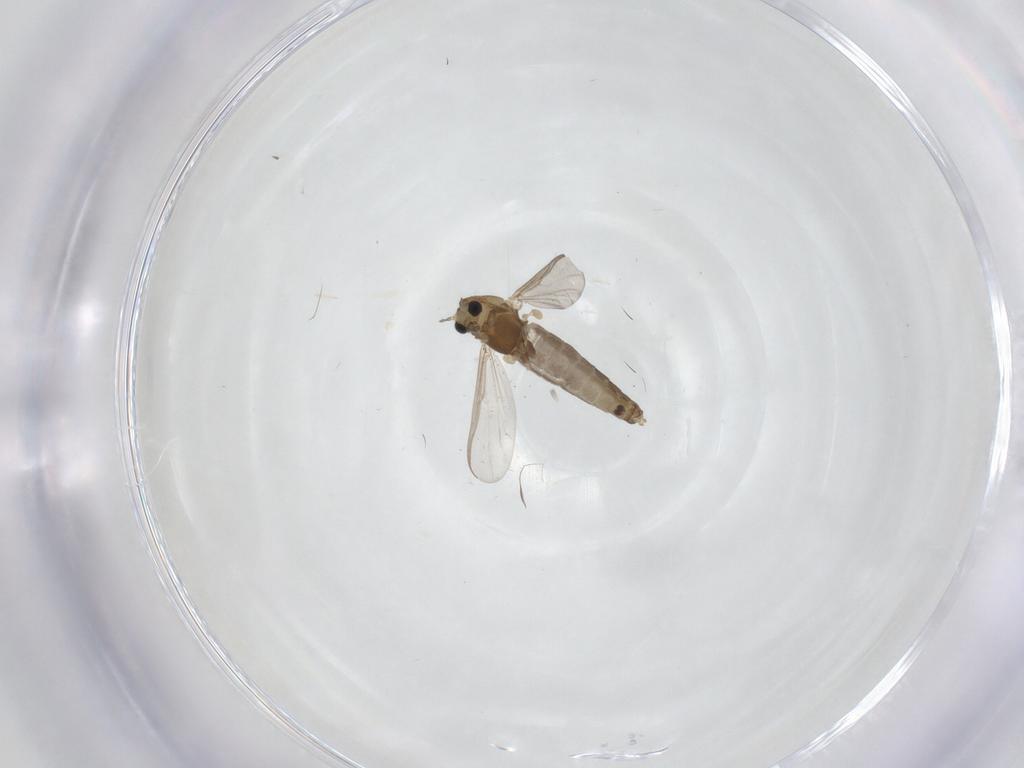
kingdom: Animalia
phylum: Arthropoda
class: Insecta
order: Diptera
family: Chironomidae
